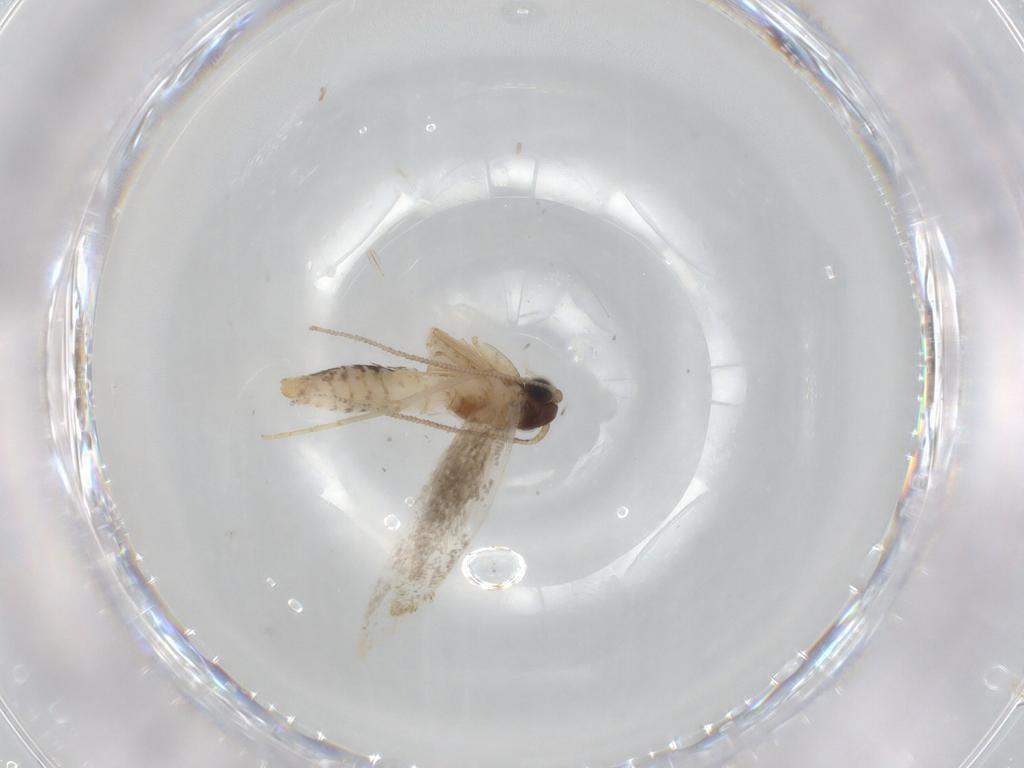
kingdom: Animalia
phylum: Arthropoda
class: Insecta
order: Lepidoptera
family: Tineidae
